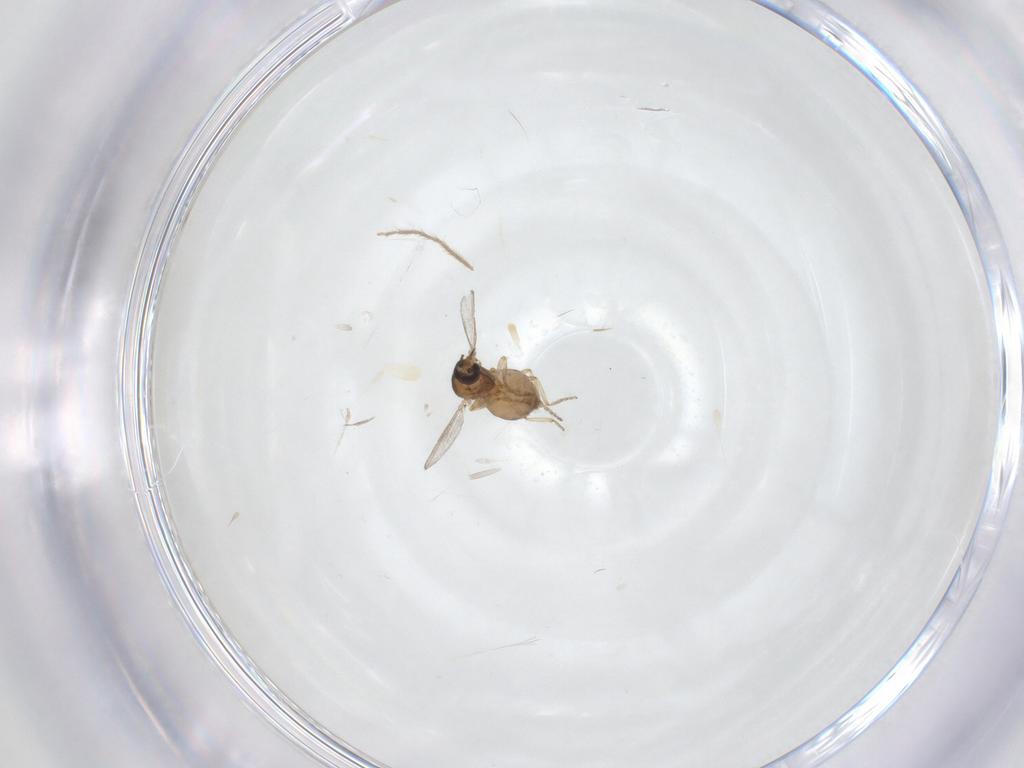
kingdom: Animalia
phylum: Arthropoda
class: Insecta
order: Diptera
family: Ceratopogonidae
